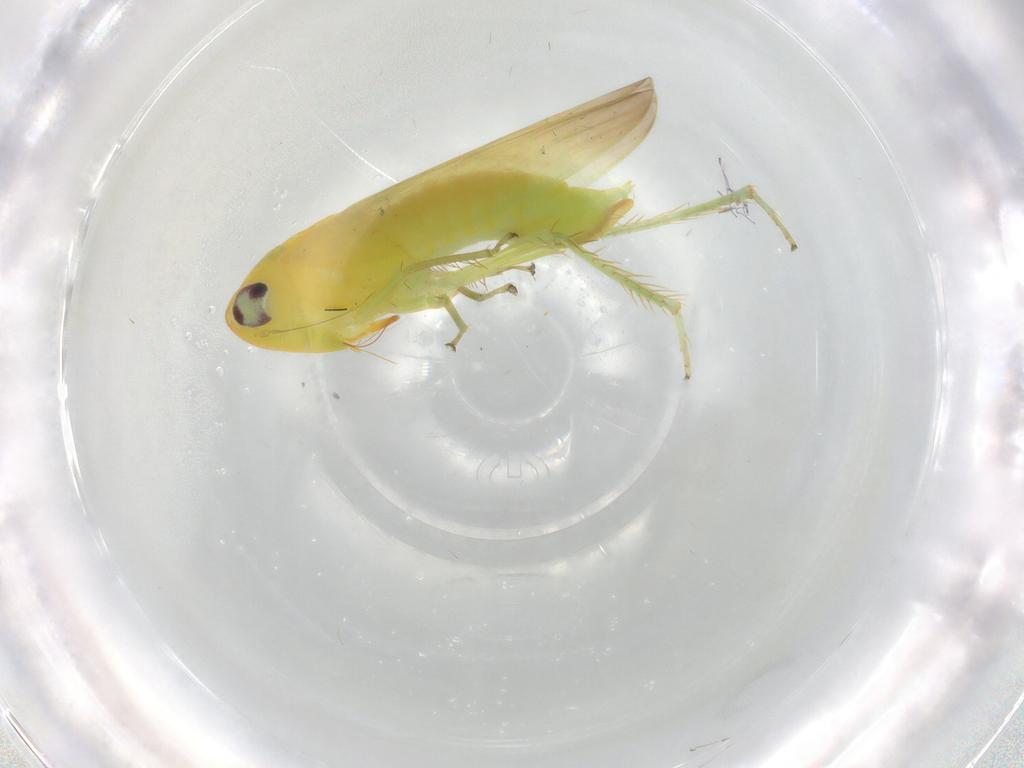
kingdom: Animalia
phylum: Arthropoda
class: Insecta
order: Hemiptera
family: Cicadellidae
